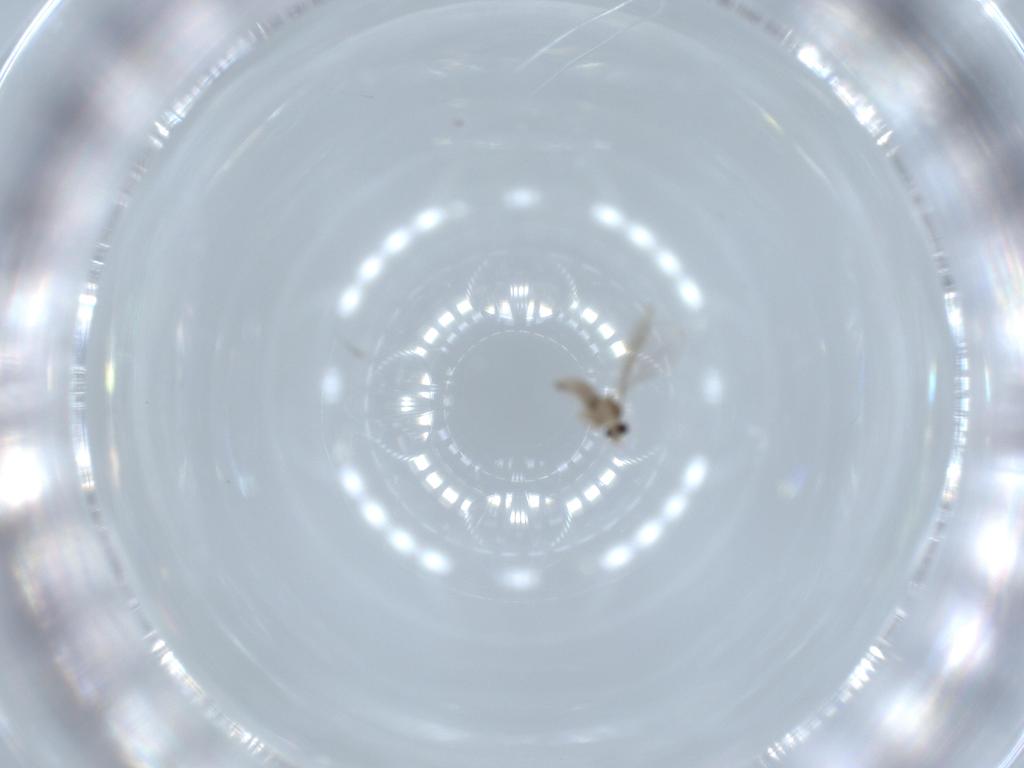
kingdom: Animalia
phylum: Arthropoda
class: Insecta
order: Diptera
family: Cecidomyiidae
